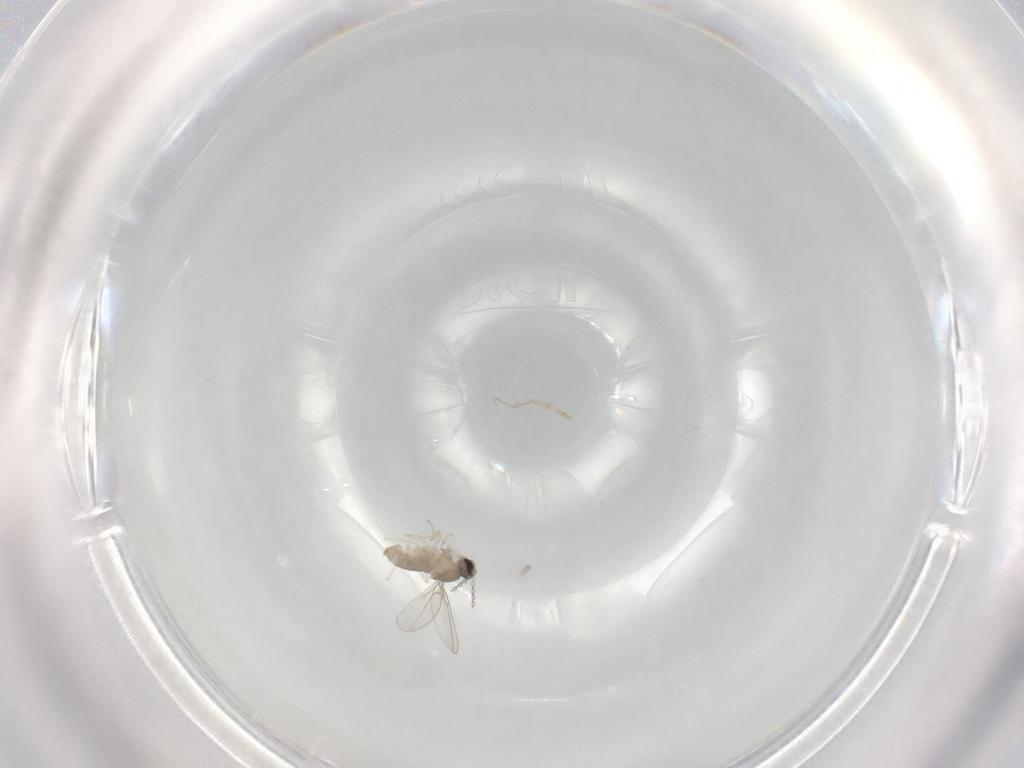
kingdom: Animalia
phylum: Arthropoda
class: Insecta
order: Diptera
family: Cecidomyiidae
